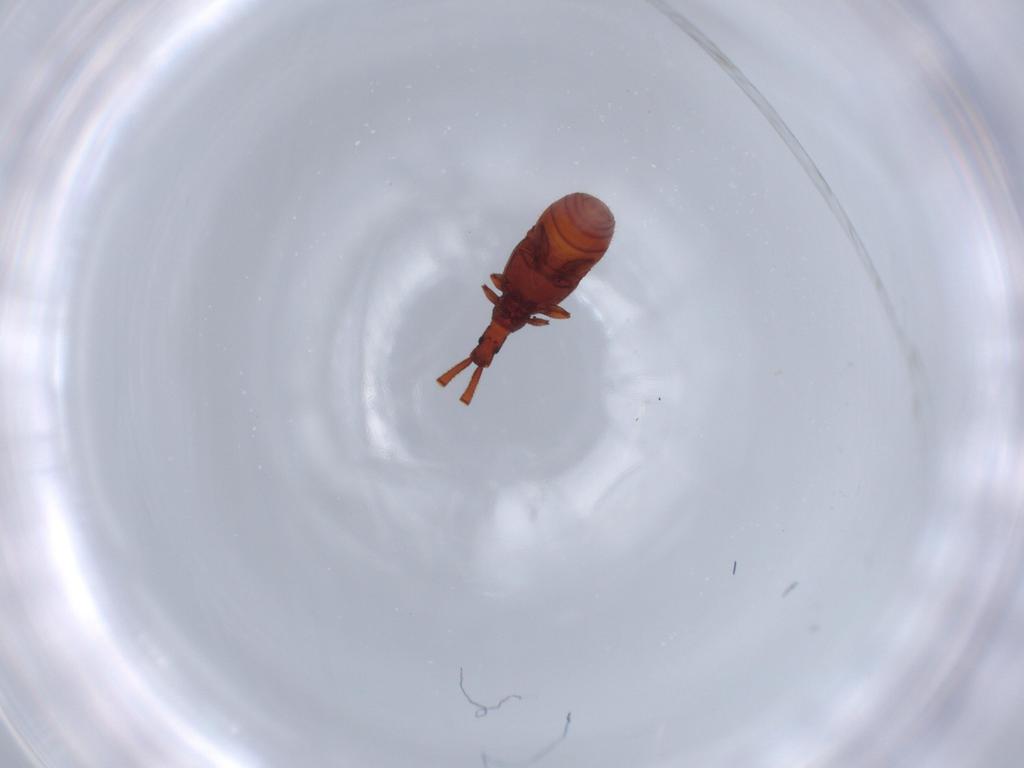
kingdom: Animalia
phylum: Arthropoda
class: Insecta
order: Coleoptera
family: Staphylinidae
